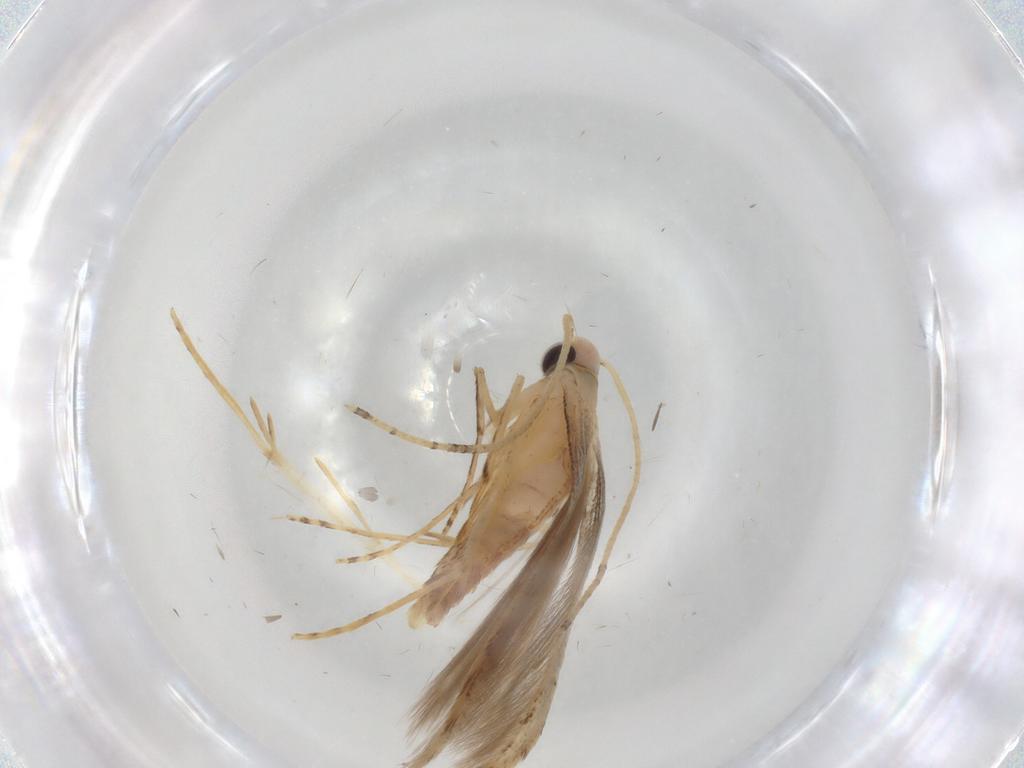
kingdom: Animalia
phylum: Arthropoda
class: Insecta
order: Lepidoptera
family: Batrachedridae
